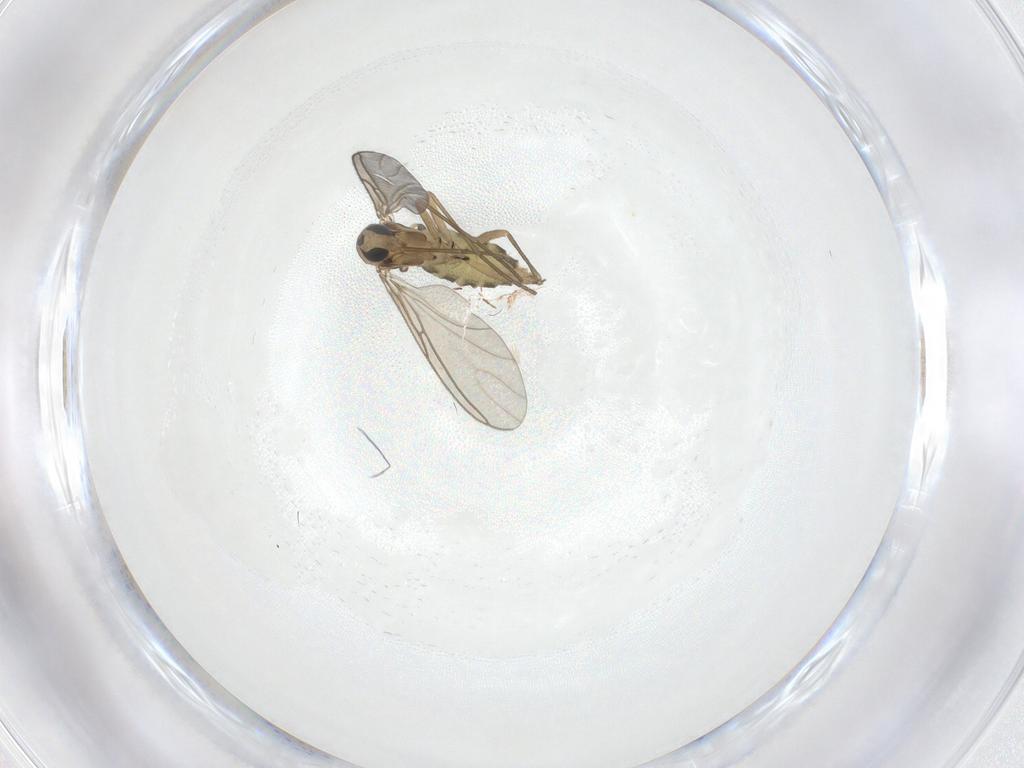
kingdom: Animalia
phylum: Arthropoda
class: Insecta
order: Diptera
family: Sciaridae
